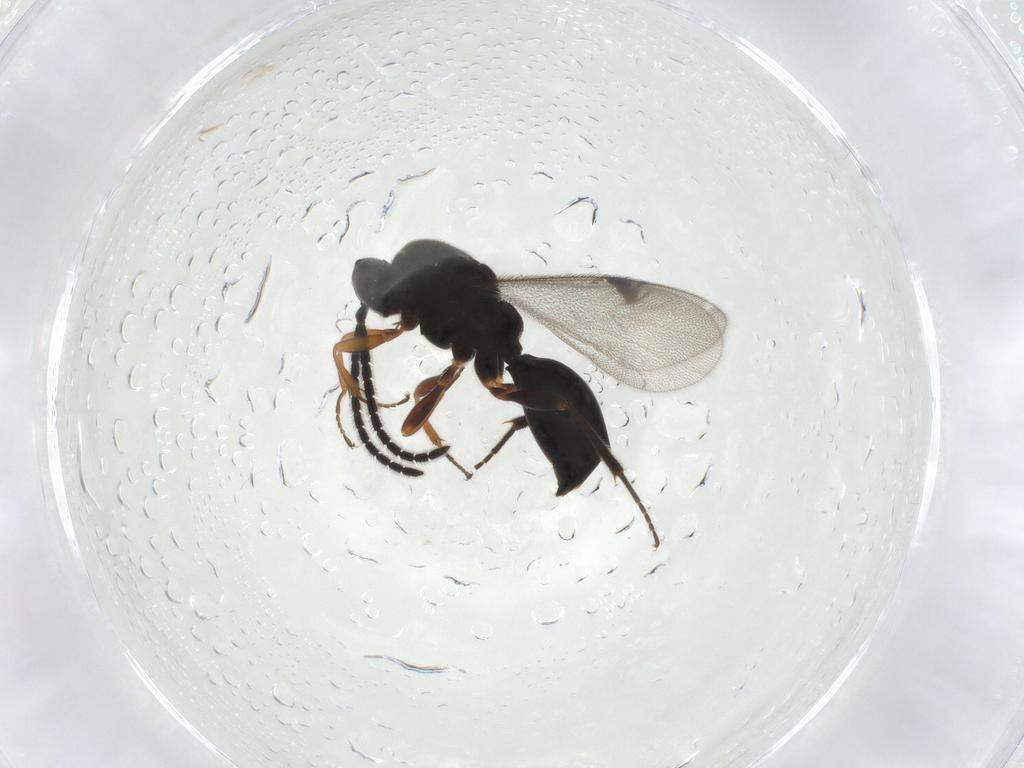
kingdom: Animalia
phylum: Arthropoda
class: Insecta
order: Hymenoptera
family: Proctotrupidae
